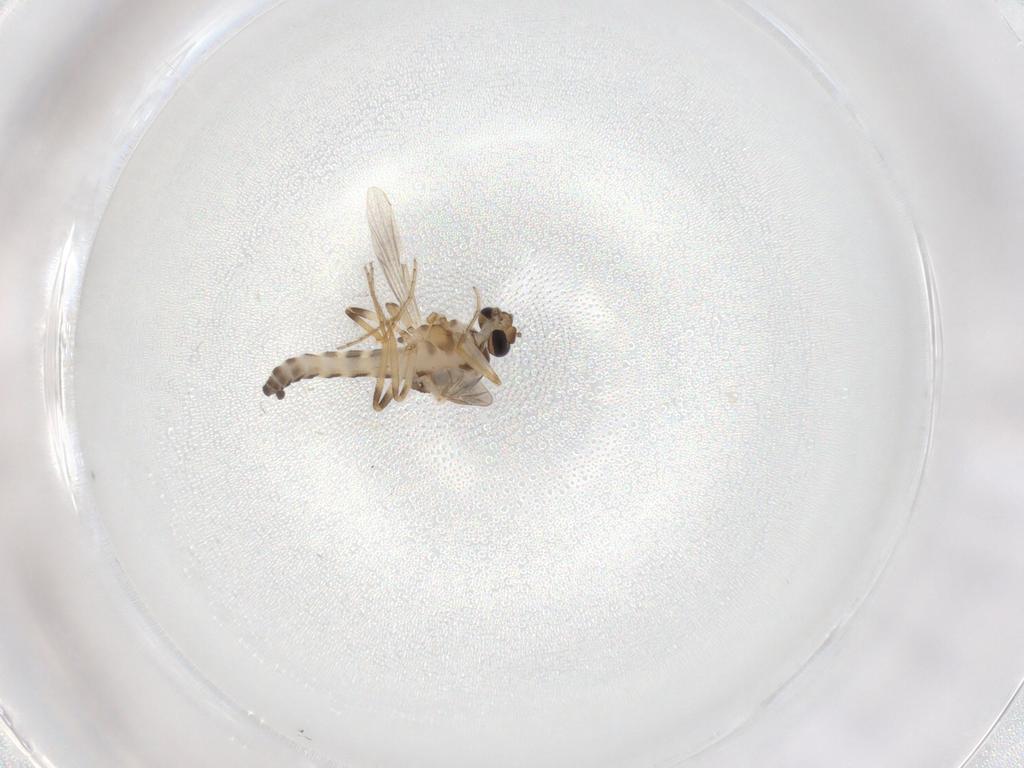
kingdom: Animalia
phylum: Arthropoda
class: Insecta
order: Diptera
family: Ceratopogonidae
